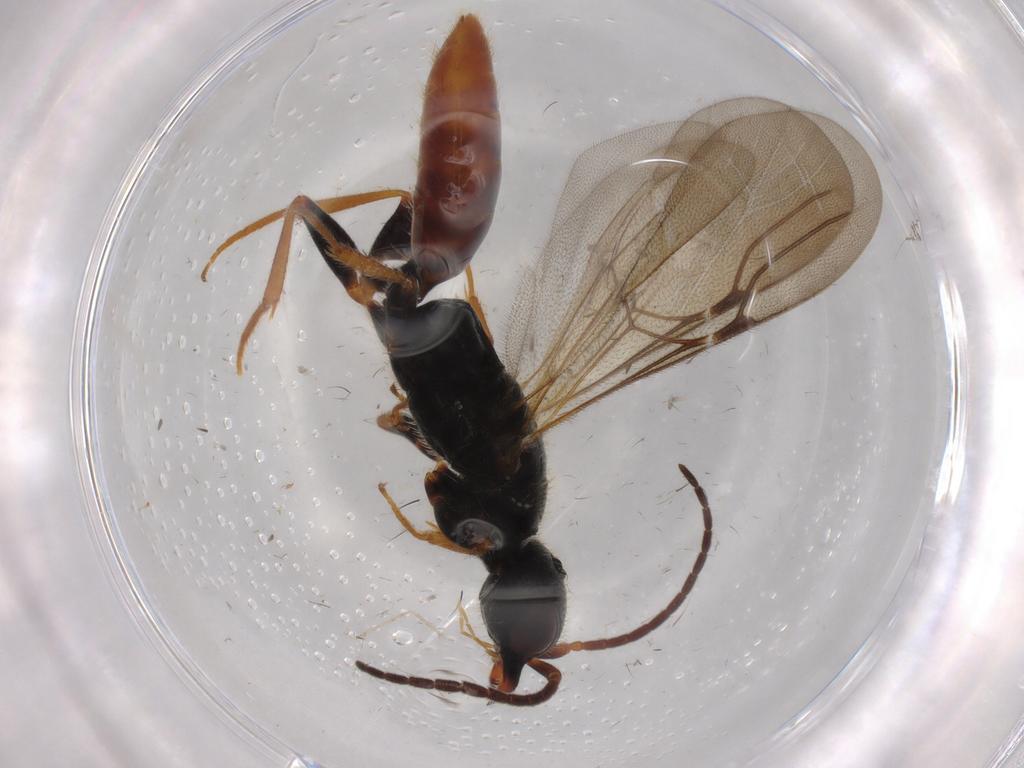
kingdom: Animalia
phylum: Arthropoda
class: Insecta
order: Hymenoptera
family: Bethylidae
